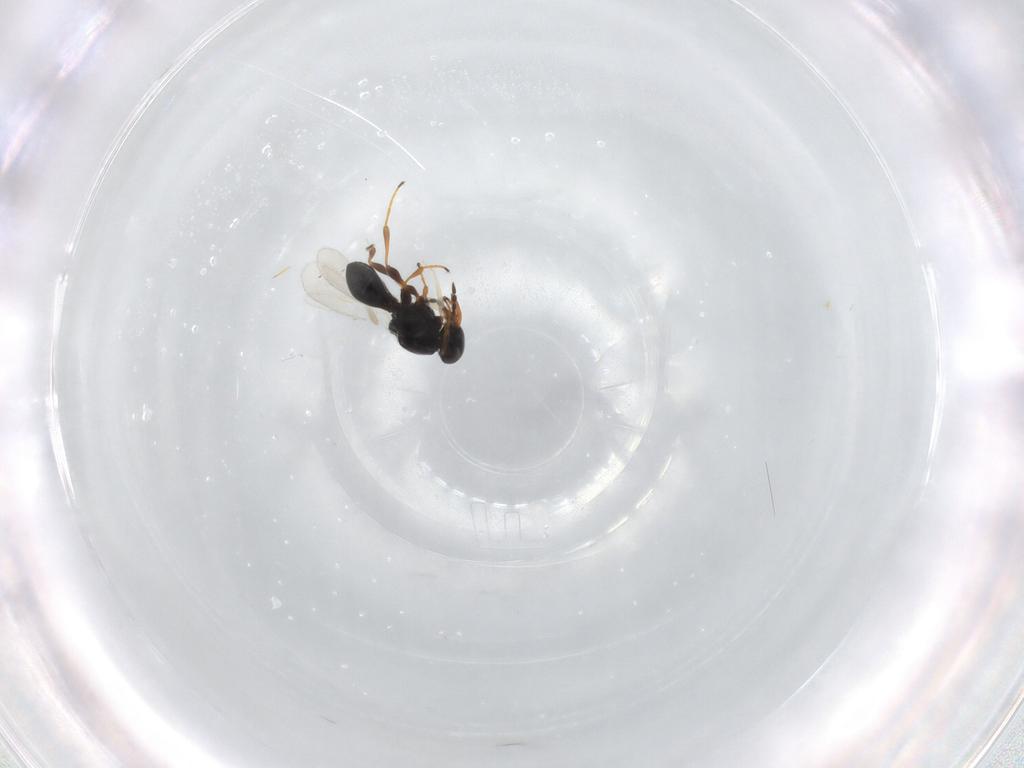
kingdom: Animalia
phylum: Arthropoda
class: Insecta
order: Hymenoptera
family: Platygastridae
